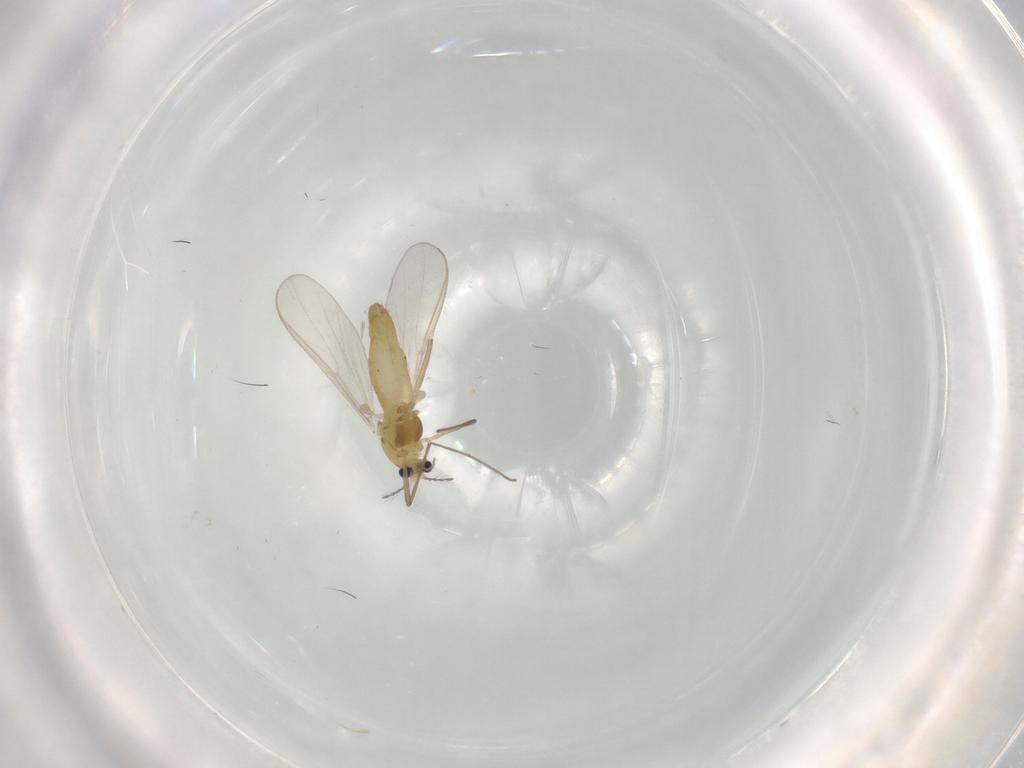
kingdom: Animalia
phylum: Arthropoda
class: Insecta
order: Diptera
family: Chironomidae
